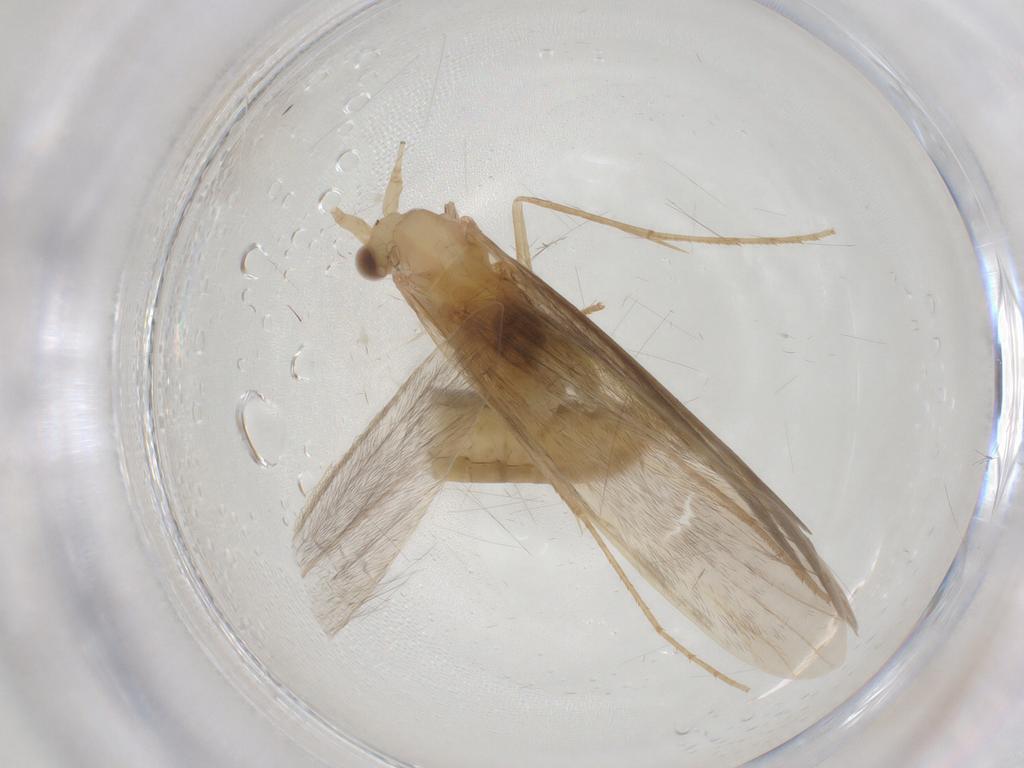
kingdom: Animalia
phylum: Arthropoda
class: Insecta
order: Trichoptera
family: Leptoceridae
